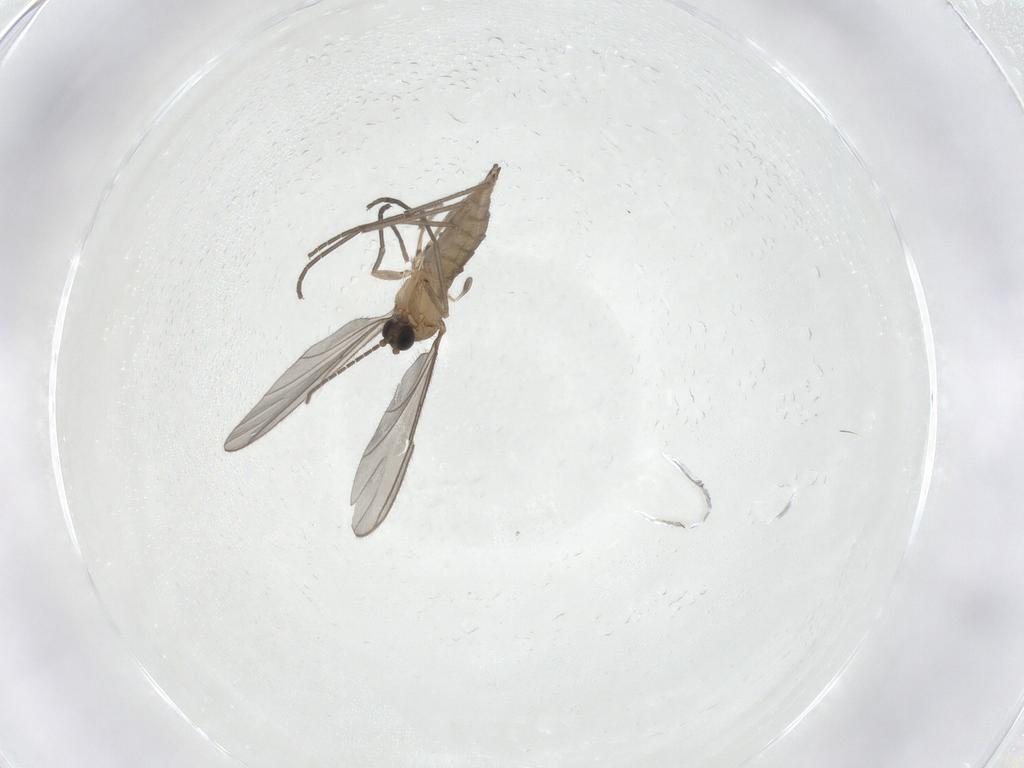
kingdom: Animalia
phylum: Arthropoda
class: Insecta
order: Diptera
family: Sciaridae
